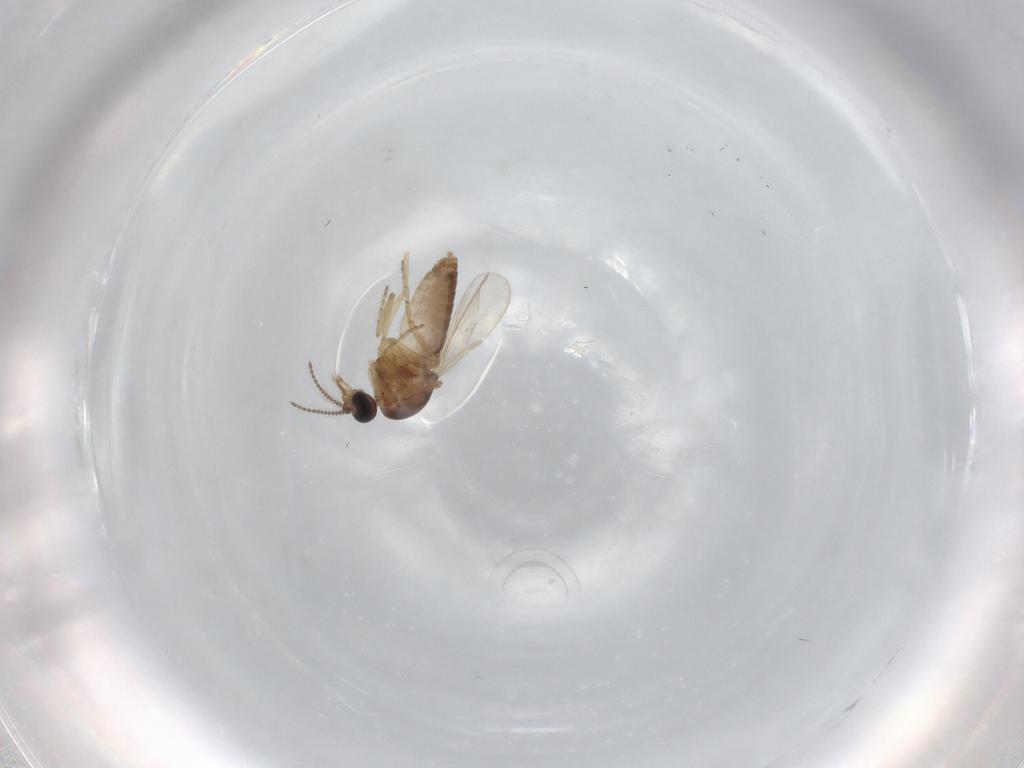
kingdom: Animalia
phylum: Arthropoda
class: Insecta
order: Diptera
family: Ceratopogonidae
